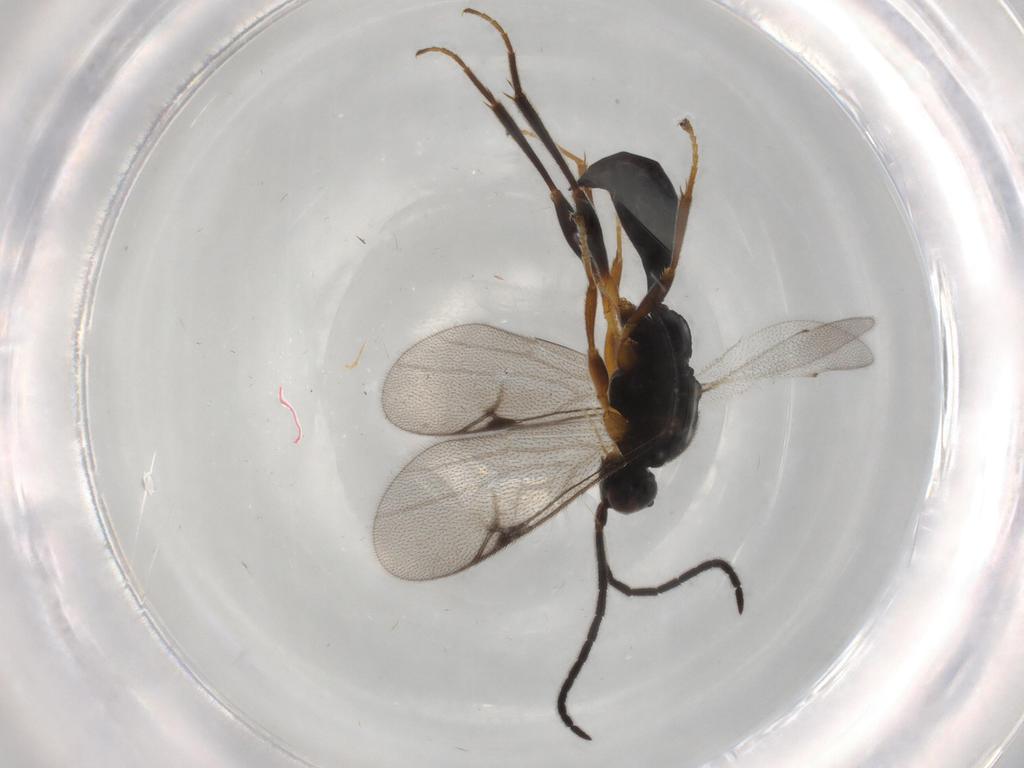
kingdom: Animalia
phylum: Arthropoda
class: Insecta
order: Hymenoptera
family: Proctotrupidae
